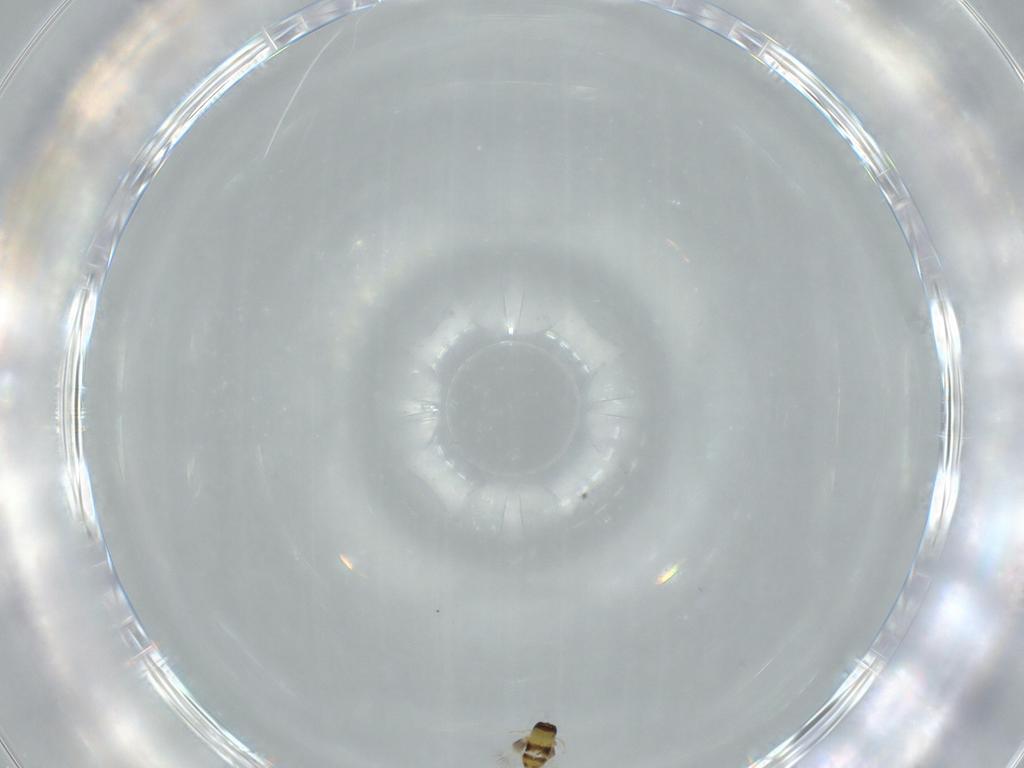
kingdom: Animalia
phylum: Arthropoda
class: Insecta
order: Hymenoptera
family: Signiphoridae
